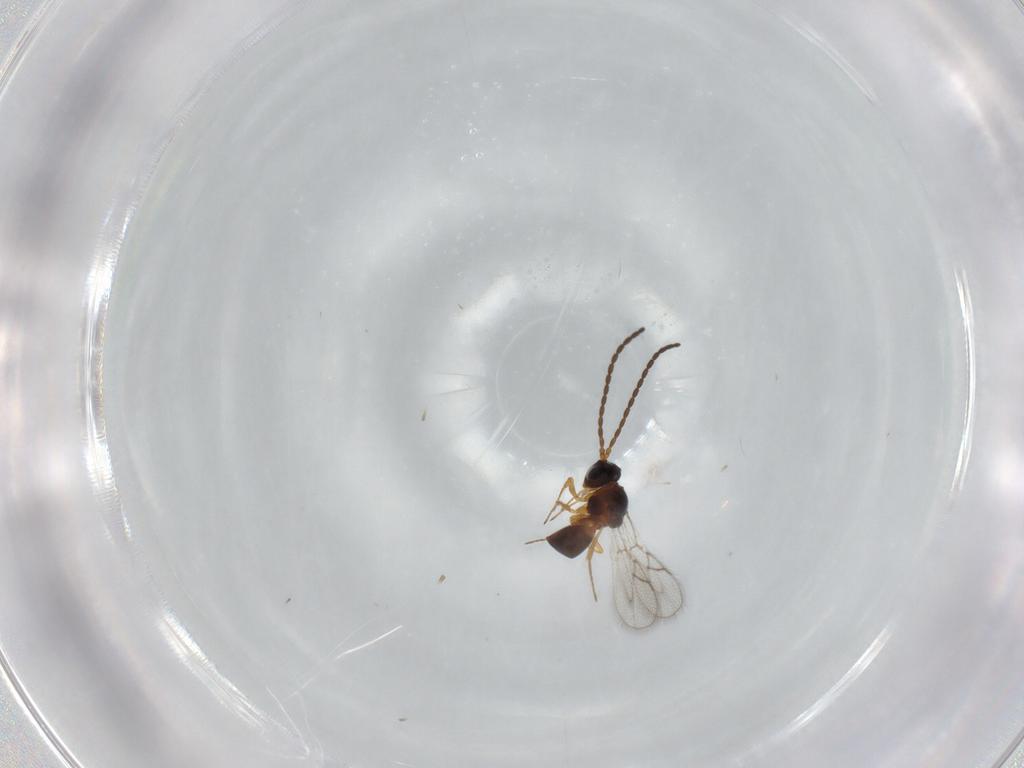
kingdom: Animalia
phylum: Arthropoda
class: Insecta
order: Hymenoptera
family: Figitidae
